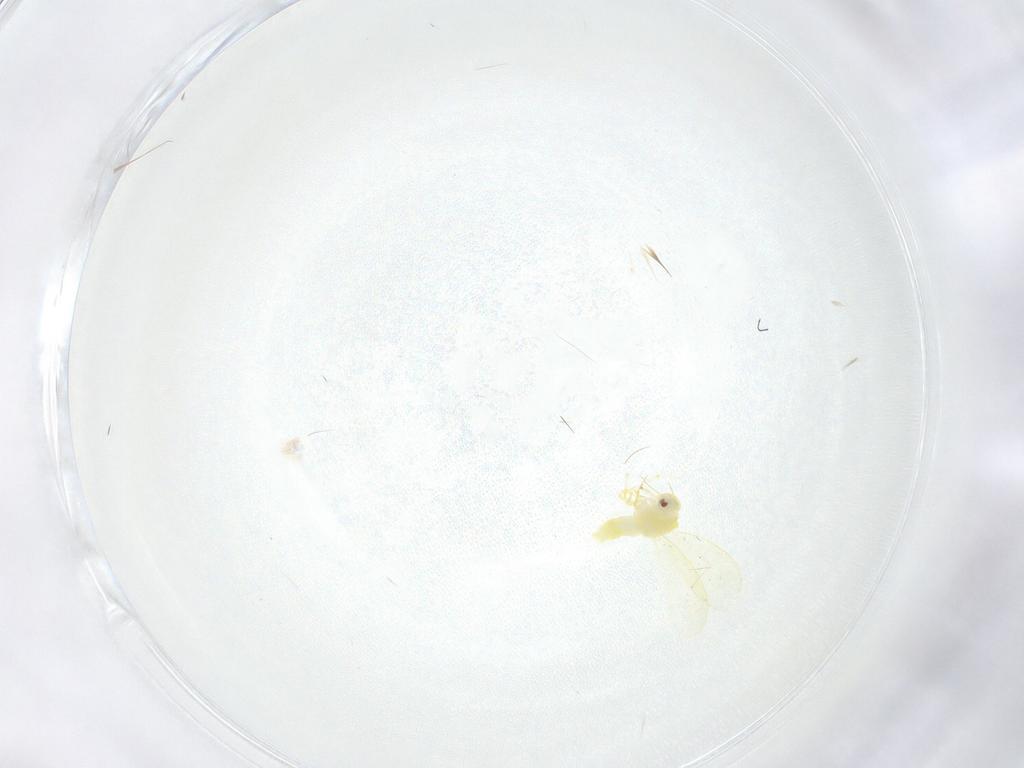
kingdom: Animalia
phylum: Arthropoda
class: Insecta
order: Hemiptera
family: Aleyrodidae
